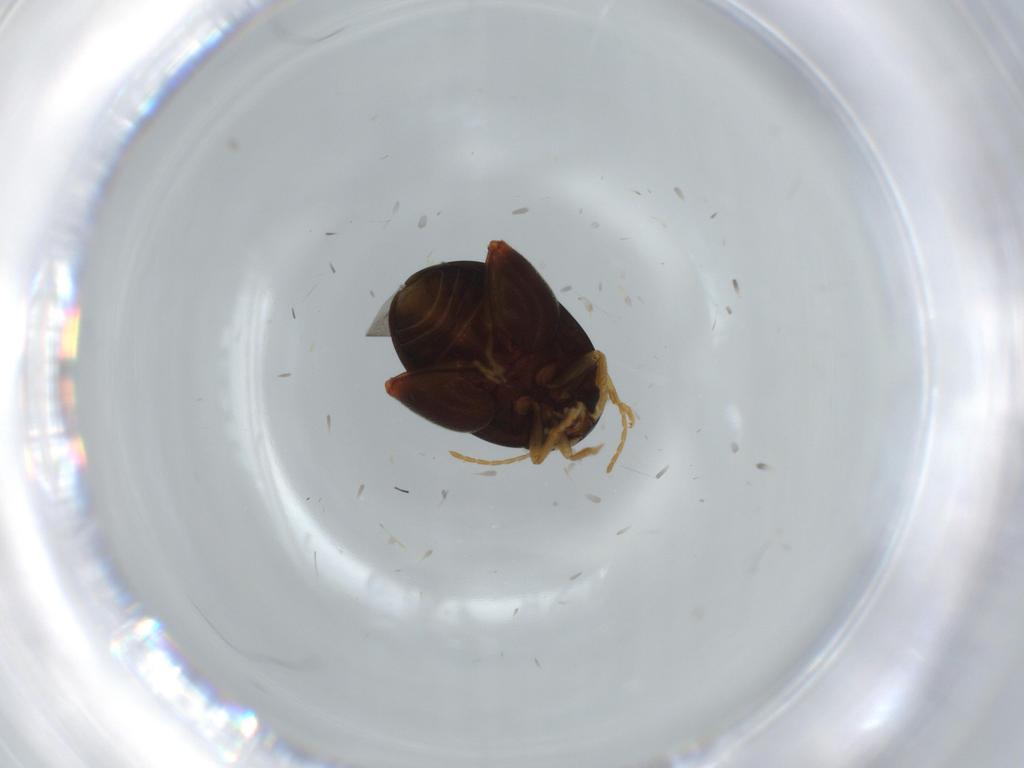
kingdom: Animalia
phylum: Arthropoda
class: Insecta
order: Coleoptera
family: Chrysomelidae
